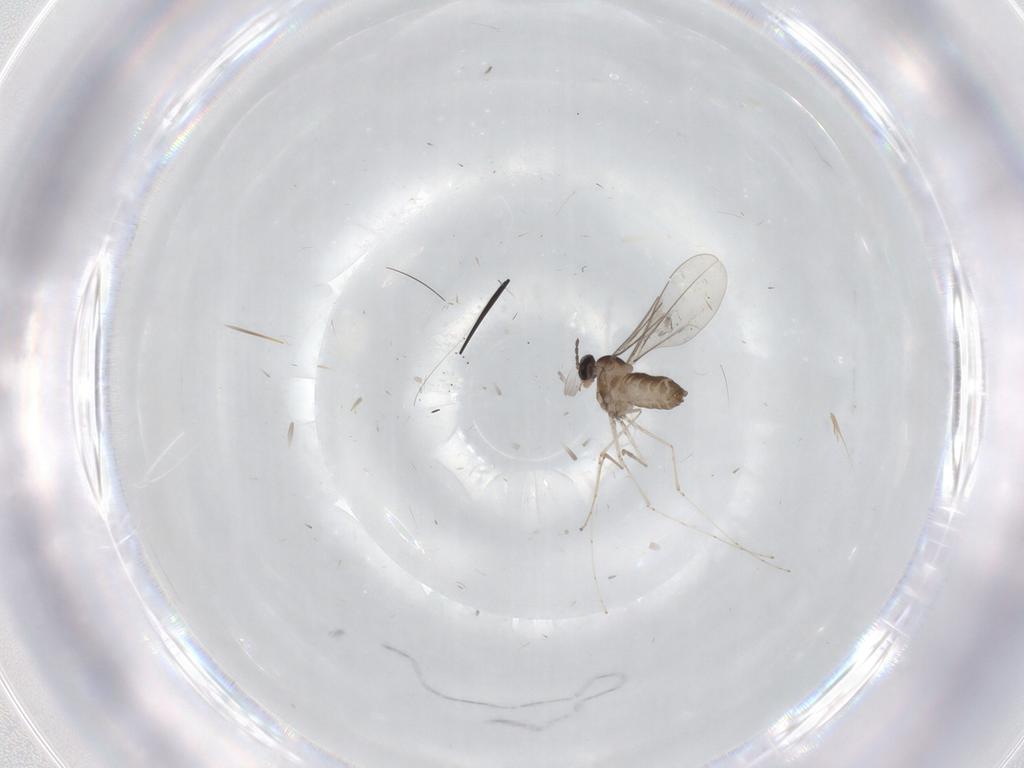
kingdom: Animalia
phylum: Arthropoda
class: Insecta
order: Diptera
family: Cecidomyiidae
